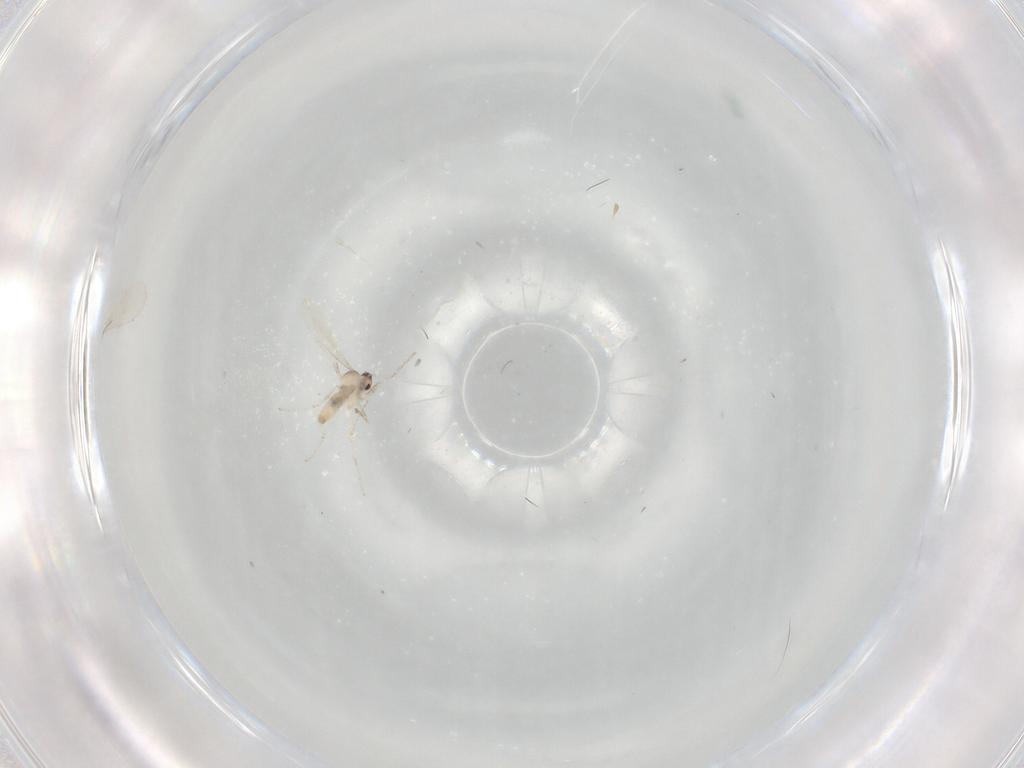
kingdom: Animalia
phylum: Arthropoda
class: Insecta
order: Diptera
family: Cecidomyiidae
